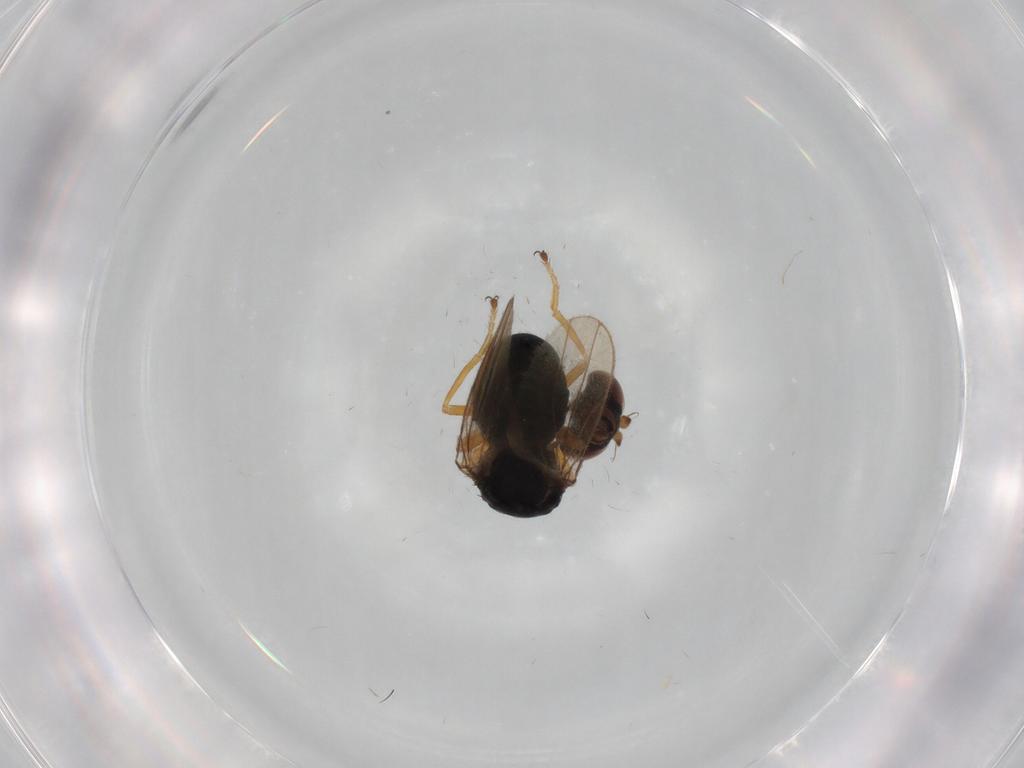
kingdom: Animalia
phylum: Arthropoda
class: Insecta
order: Diptera
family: Ephydridae
